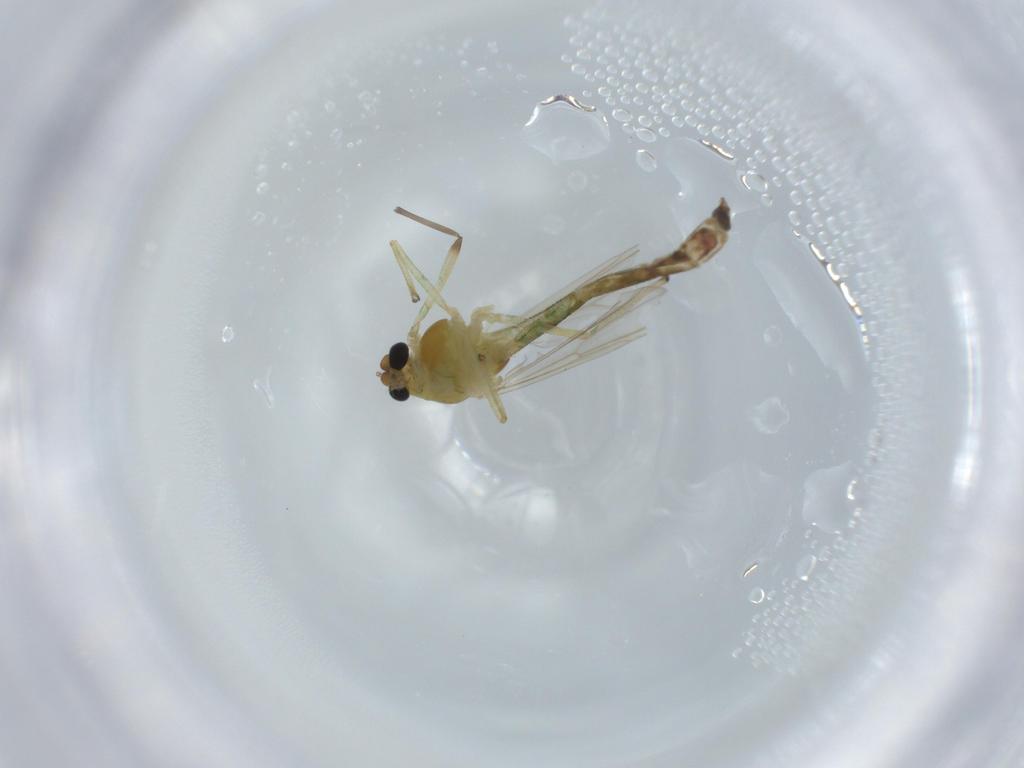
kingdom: Animalia
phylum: Arthropoda
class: Insecta
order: Diptera
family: Chironomidae
